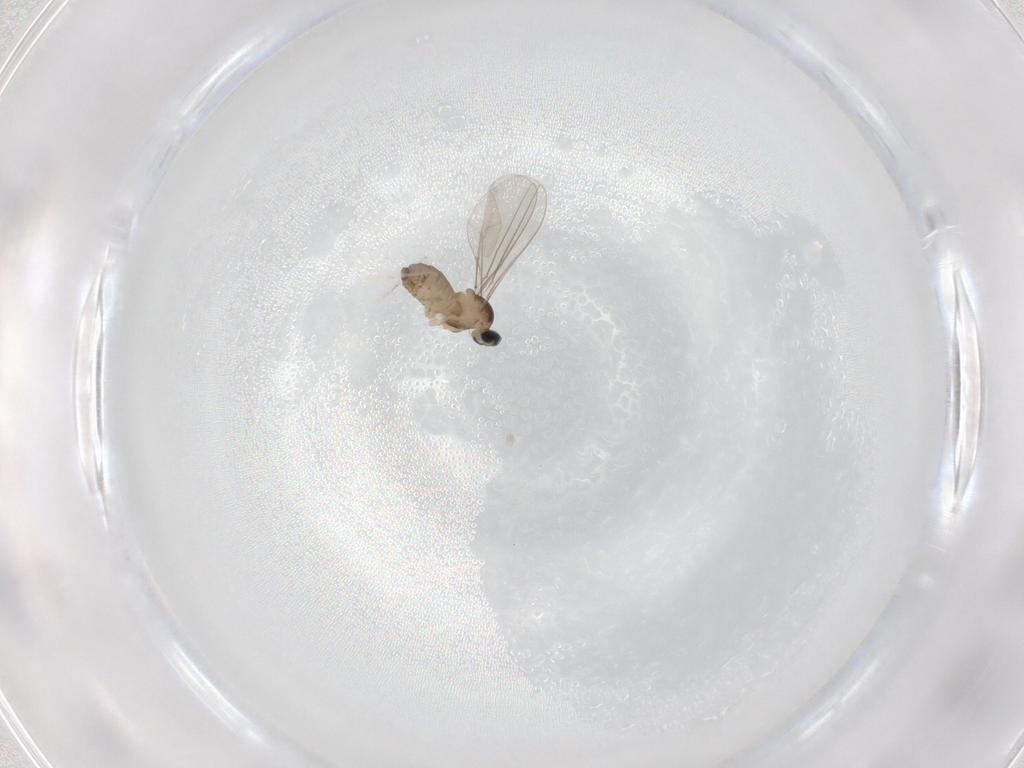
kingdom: Animalia
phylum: Arthropoda
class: Insecta
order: Diptera
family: Cecidomyiidae
